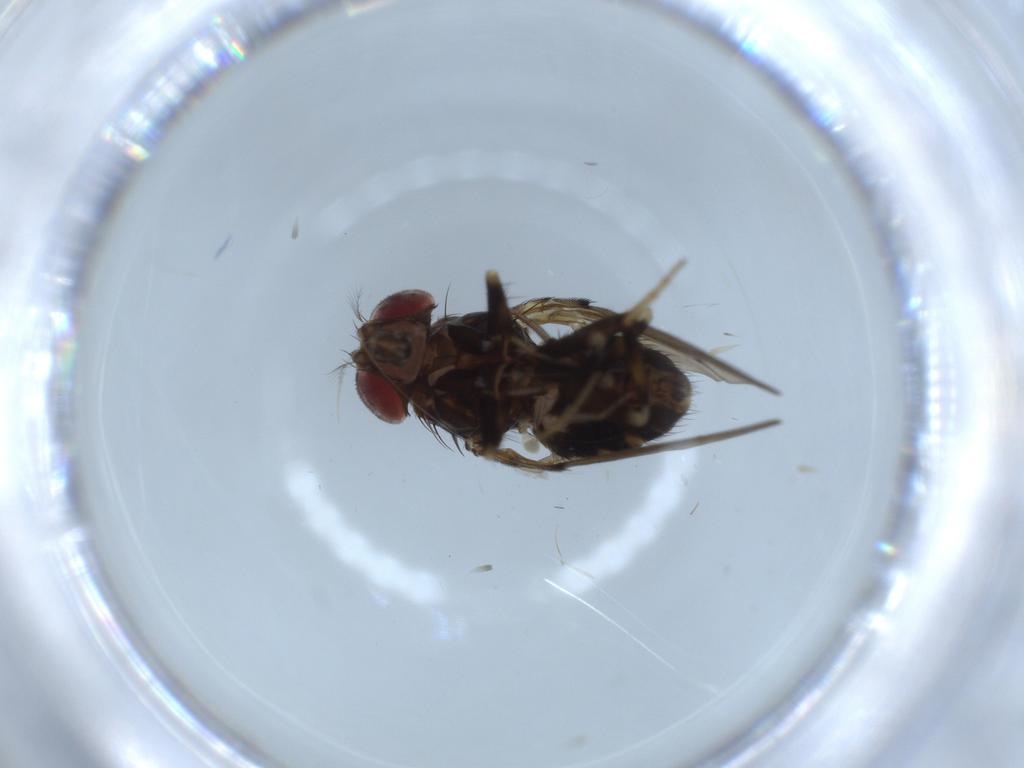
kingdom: Animalia
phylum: Arthropoda
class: Insecta
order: Diptera
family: Drosophilidae
